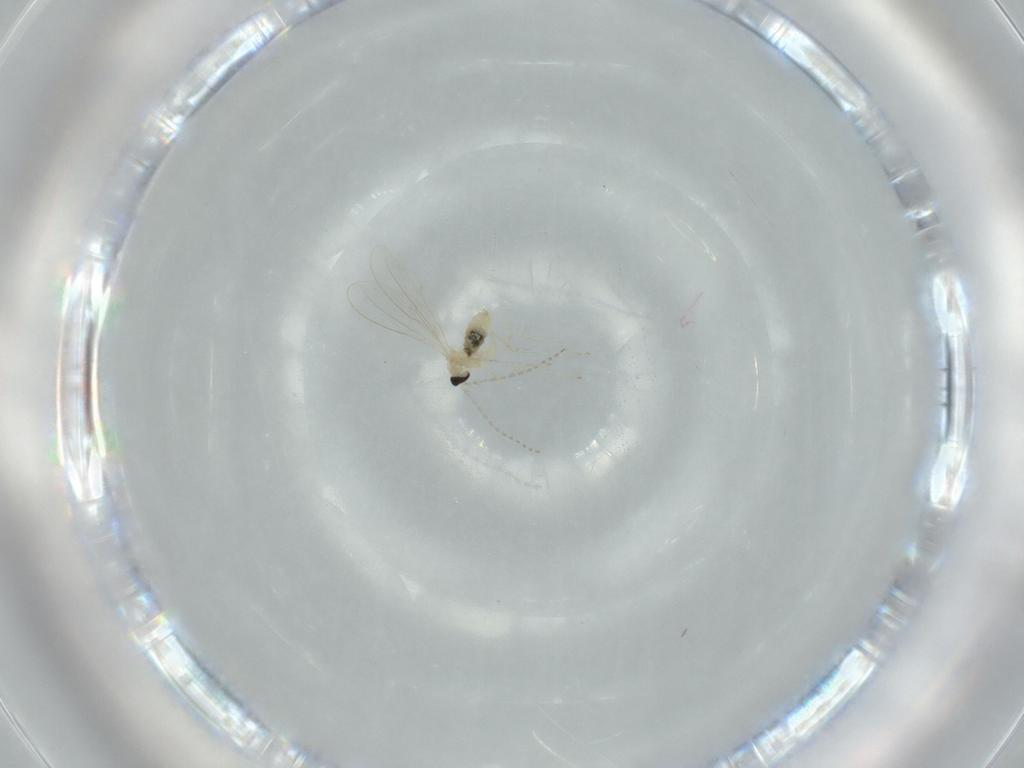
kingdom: Animalia
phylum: Arthropoda
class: Insecta
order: Diptera
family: Cecidomyiidae
